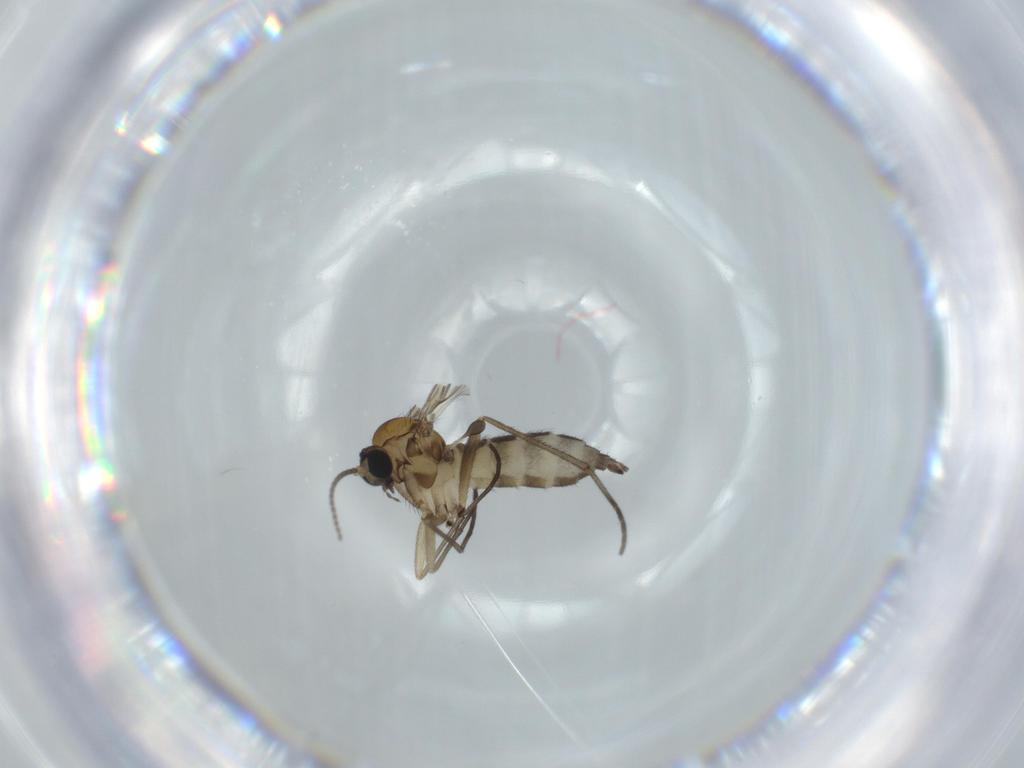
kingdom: Animalia
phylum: Arthropoda
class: Insecta
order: Diptera
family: Sciaridae
